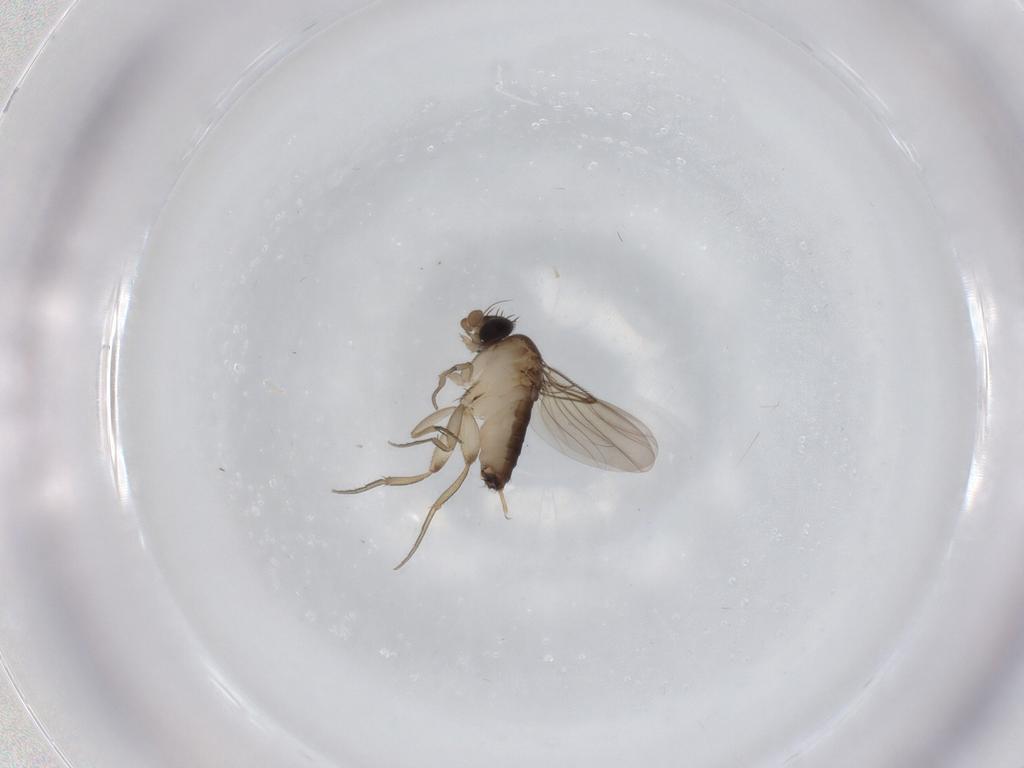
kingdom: Animalia
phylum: Arthropoda
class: Insecta
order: Diptera
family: Phoridae
